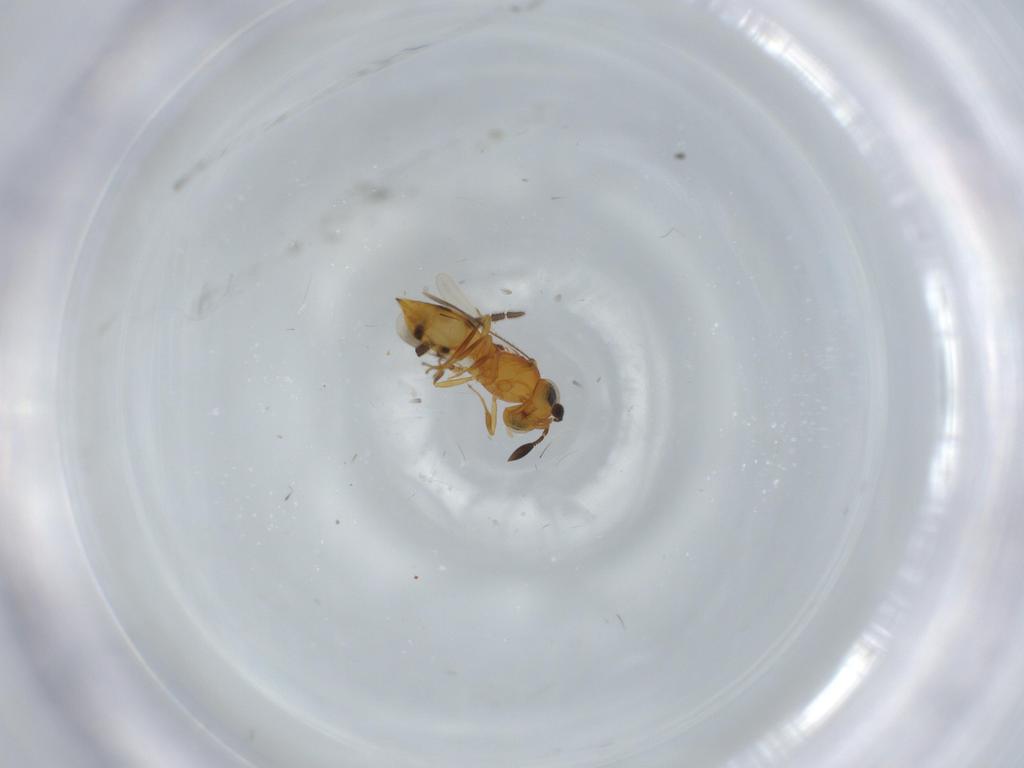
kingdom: Animalia
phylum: Arthropoda
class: Insecta
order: Hymenoptera
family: Scelionidae
